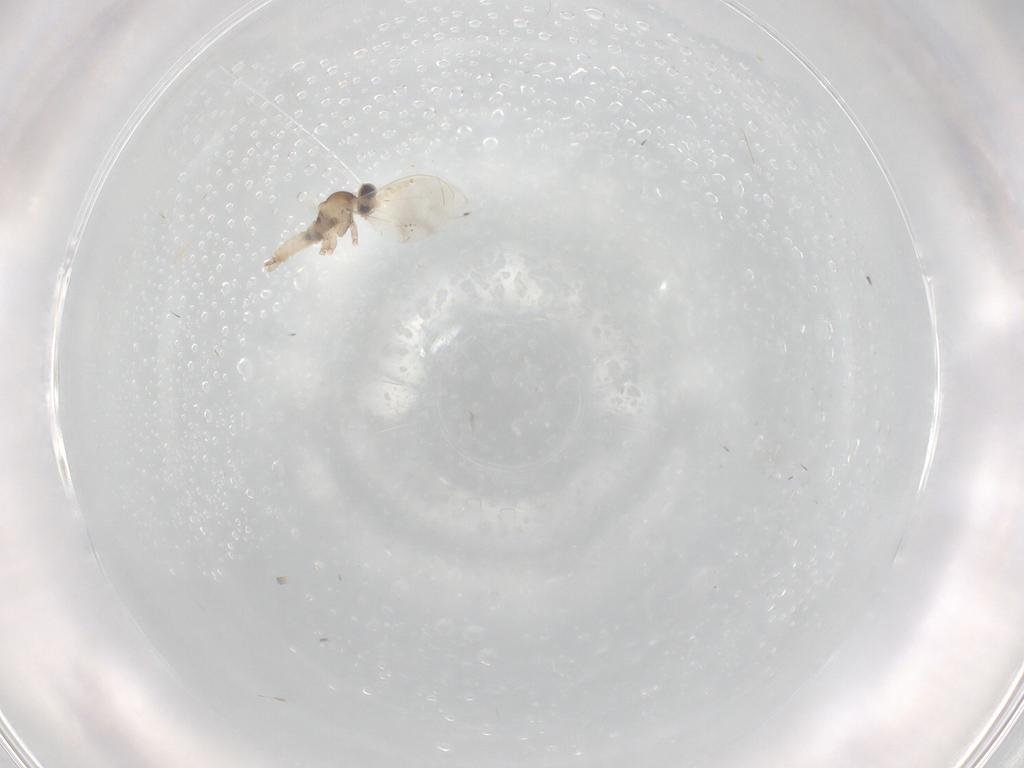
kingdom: Animalia
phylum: Arthropoda
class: Insecta
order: Diptera
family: Cecidomyiidae
